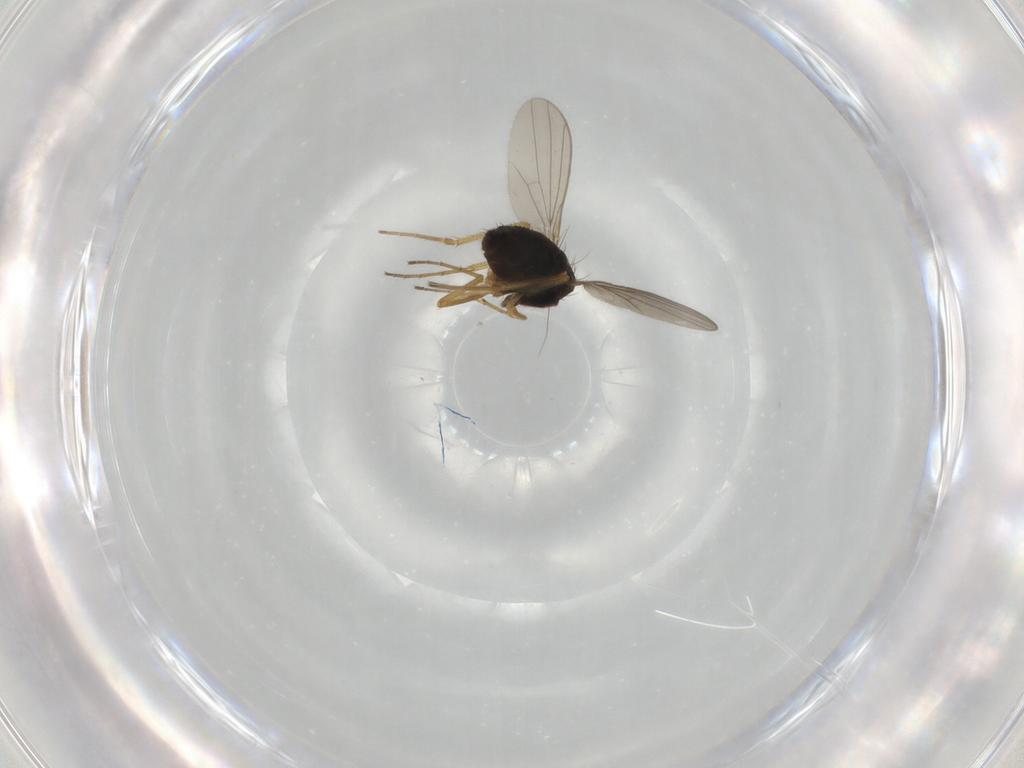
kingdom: Animalia
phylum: Arthropoda
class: Insecta
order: Diptera
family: Dolichopodidae
